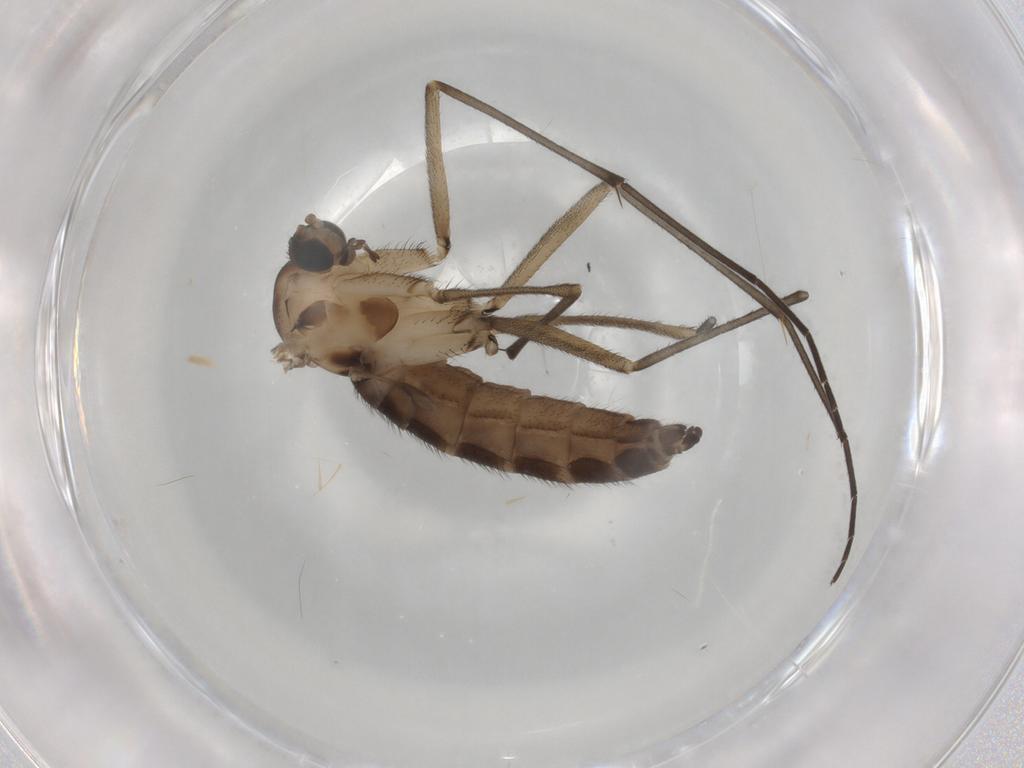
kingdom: Animalia
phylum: Arthropoda
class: Insecta
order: Diptera
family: Sciaridae
